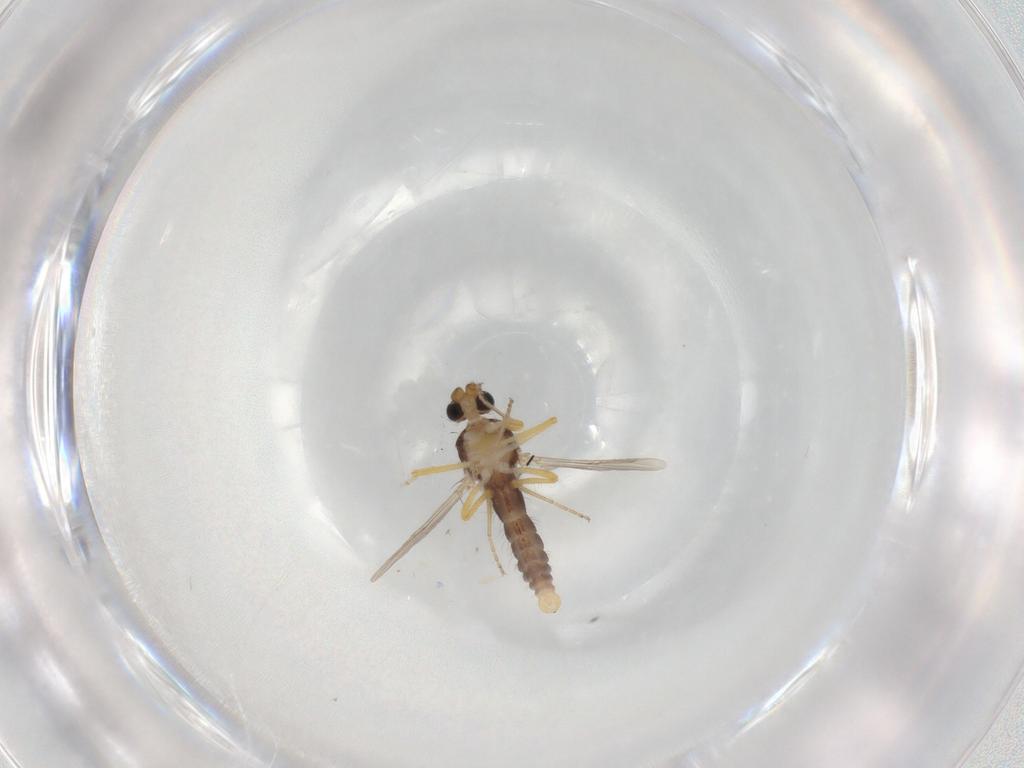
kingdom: Animalia
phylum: Arthropoda
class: Insecta
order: Diptera
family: Ceratopogonidae
